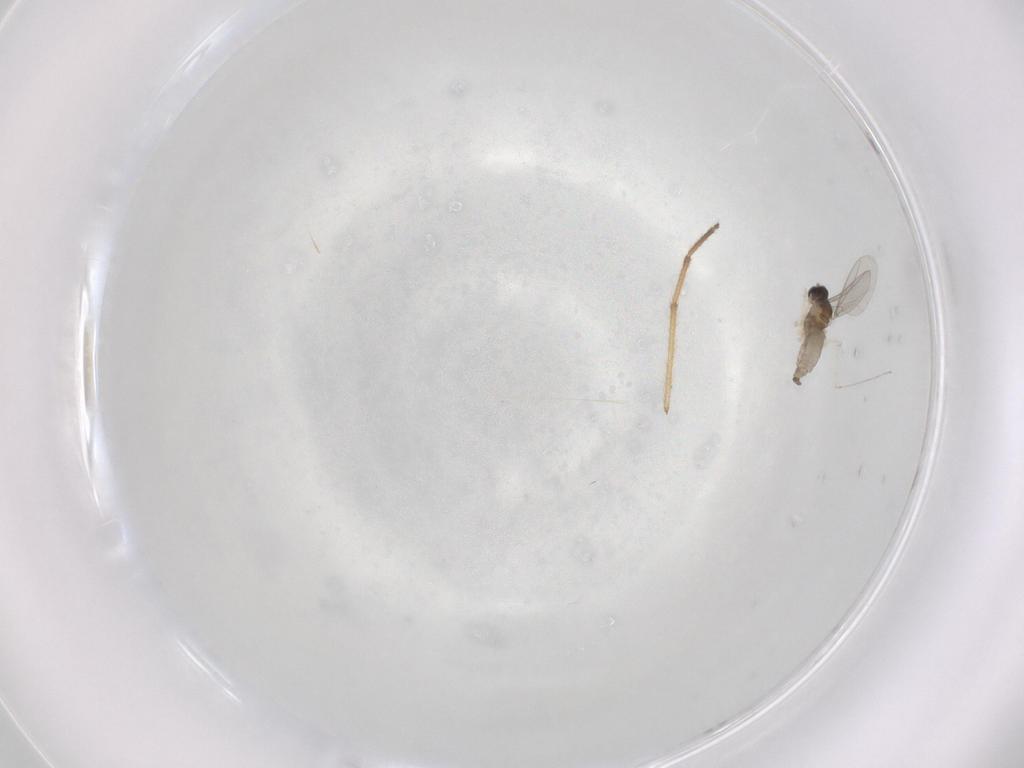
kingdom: Animalia
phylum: Arthropoda
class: Insecta
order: Diptera
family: Cecidomyiidae
